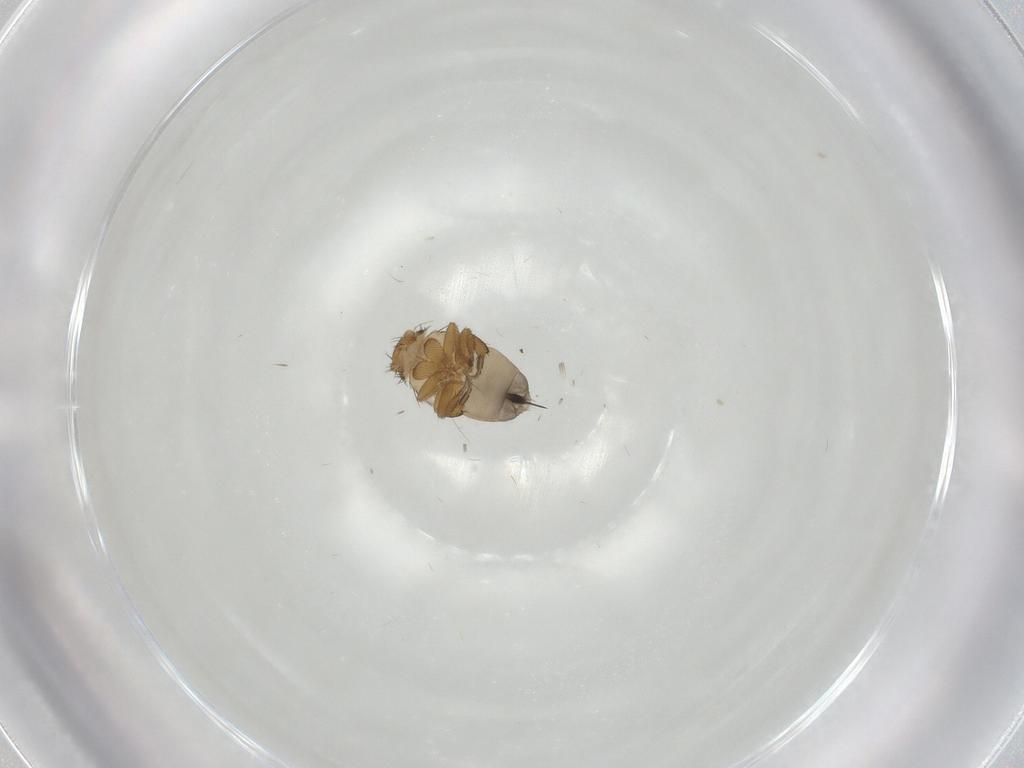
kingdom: Animalia
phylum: Arthropoda
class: Insecta
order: Diptera
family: Phoridae
